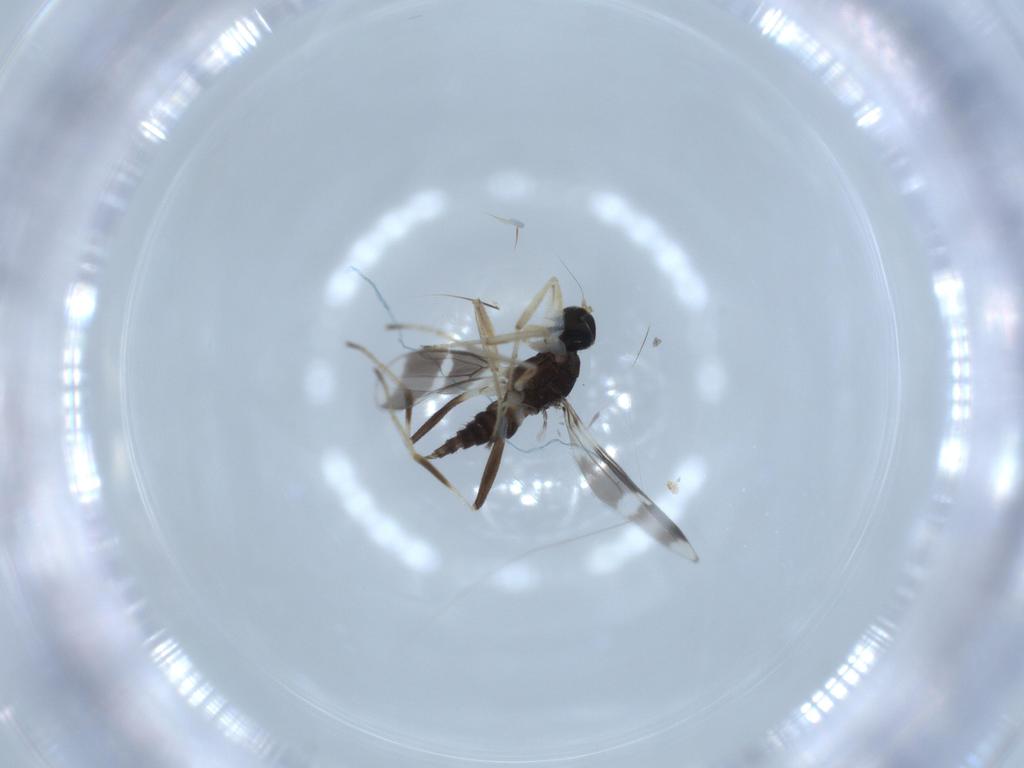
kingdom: Animalia
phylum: Arthropoda
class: Insecta
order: Diptera
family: Hybotidae
